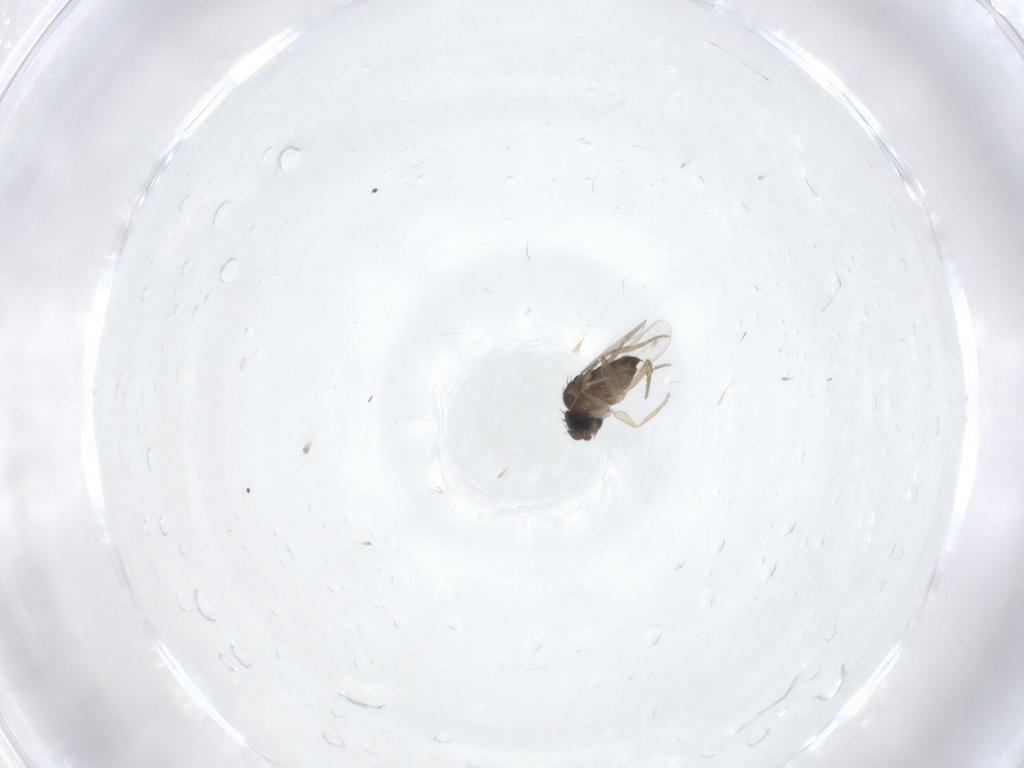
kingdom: Animalia
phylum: Arthropoda
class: Insecta
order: Diptera
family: Phoridae
